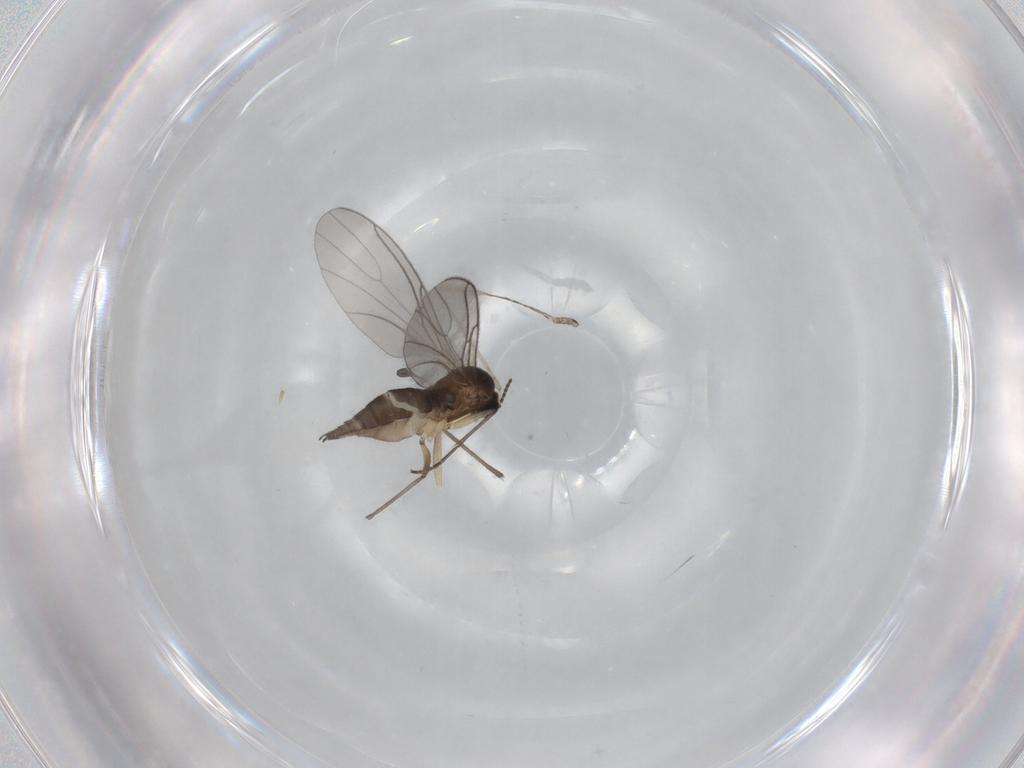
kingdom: Animalia
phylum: Arthropoda
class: Insecta
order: Diptera
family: Sciaridae
